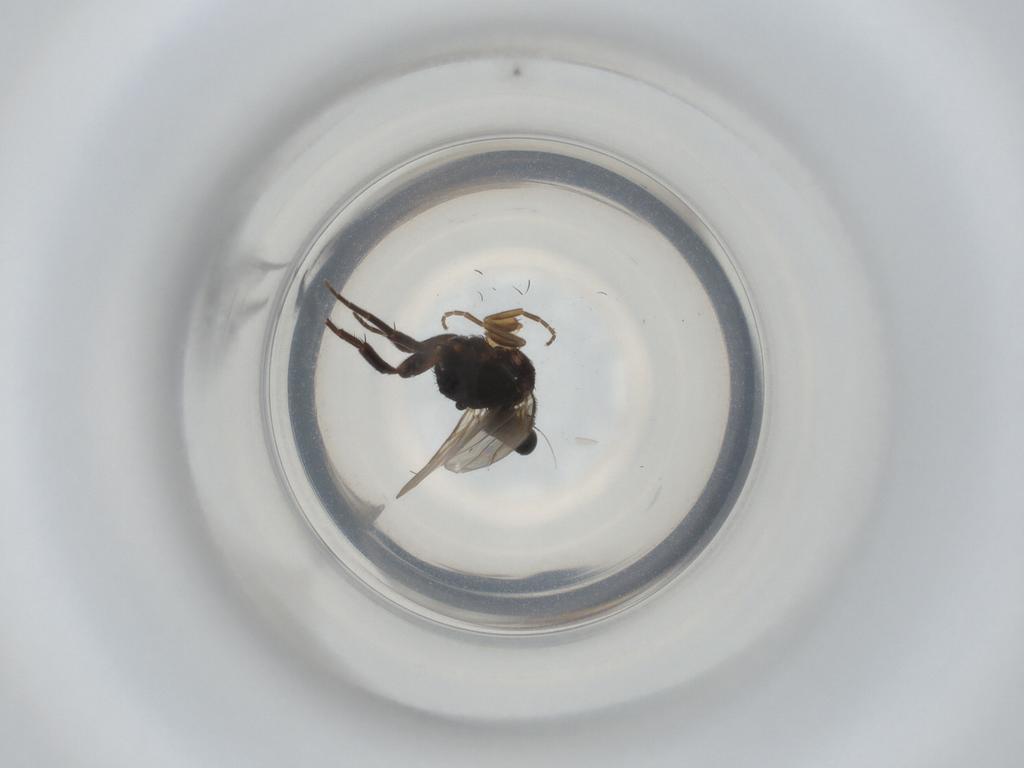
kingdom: Animalia
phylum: Arthropoda
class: Insecta
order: Diptera
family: Phoridae
